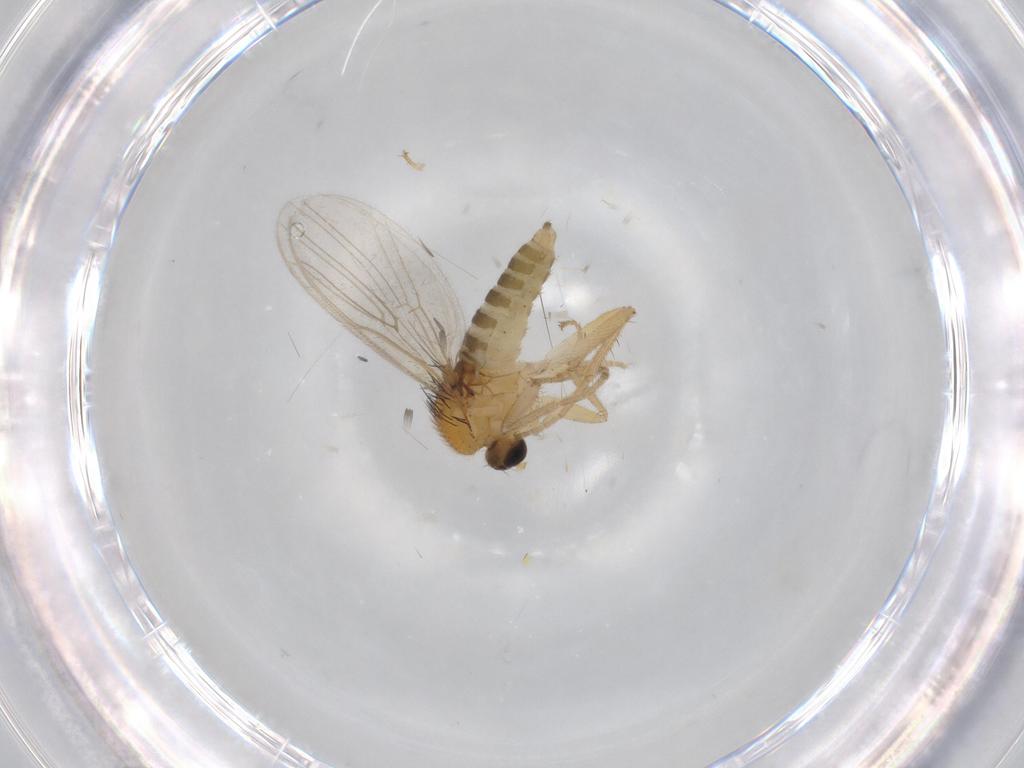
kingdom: Animalia
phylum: Arthropoda
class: Insecta
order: Diptera
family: Hybotidae
